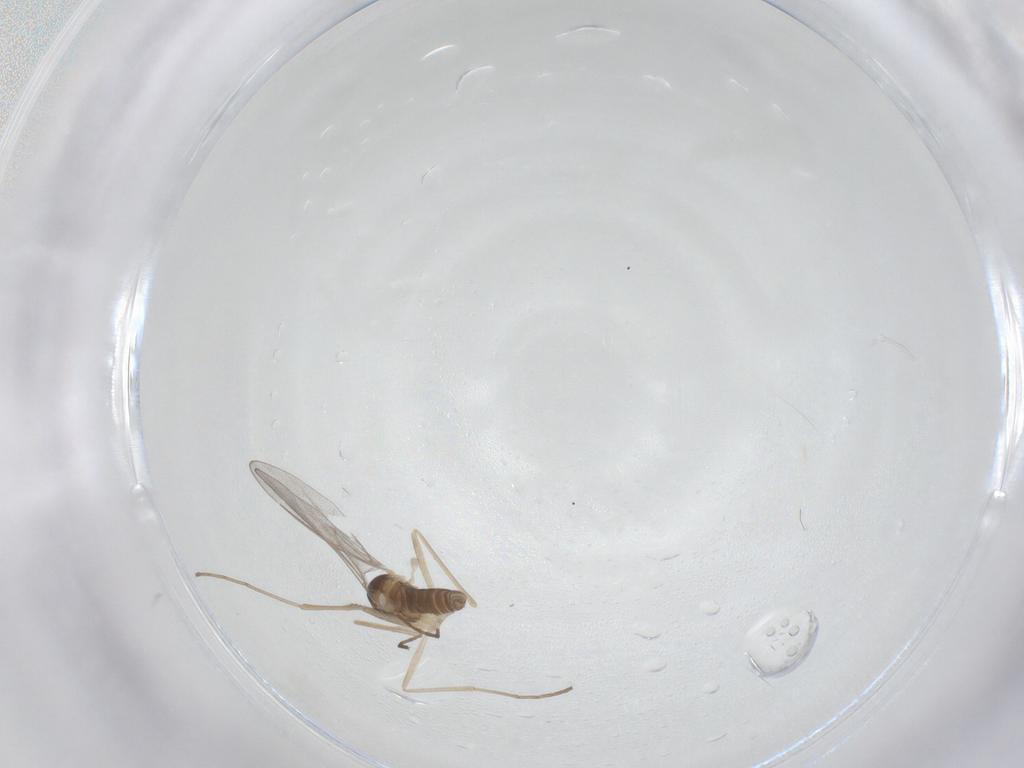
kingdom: Animalia
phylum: Arthropoda
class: Insecta
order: Diptera
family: Cecidomyiidae
